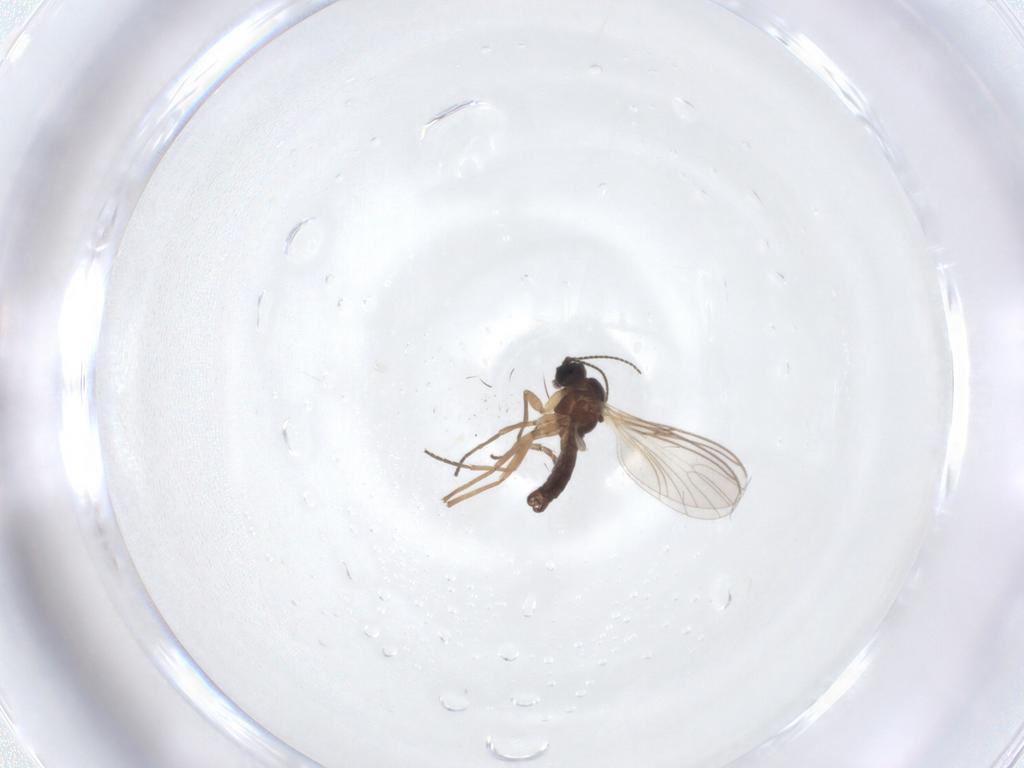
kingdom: Animalia
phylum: Arthropoda
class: Insecta
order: Diptera
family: Heleomyzidae
